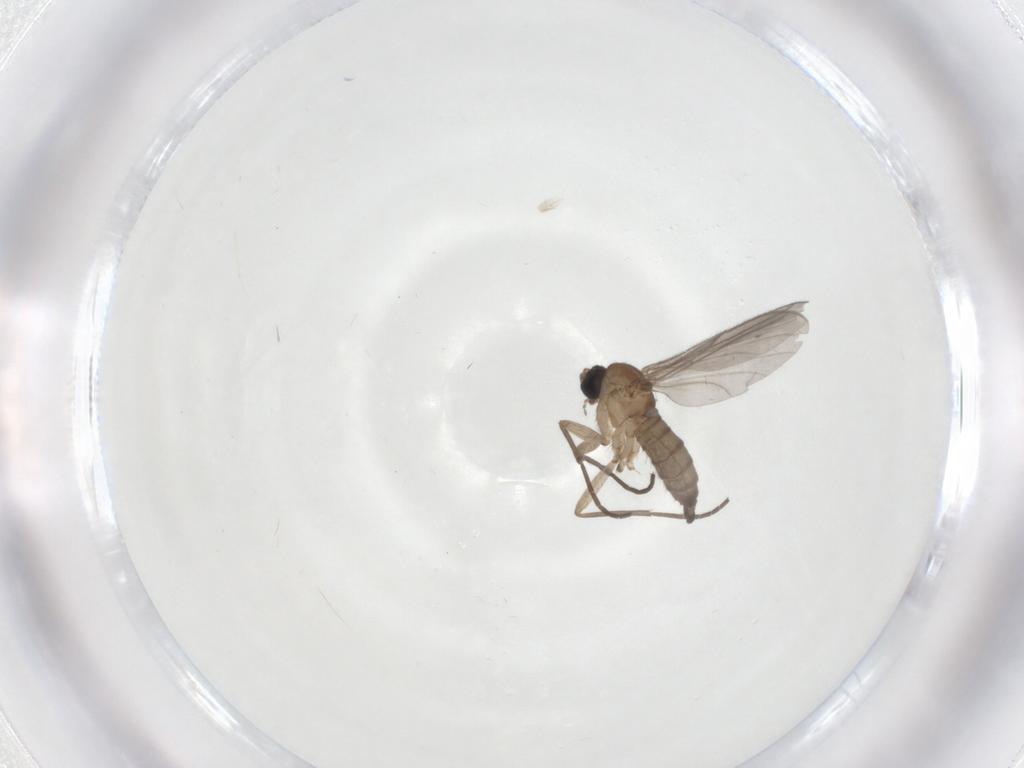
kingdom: Animalia
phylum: Arthropoda
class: Insecta
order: Diptera
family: Sciaridae
